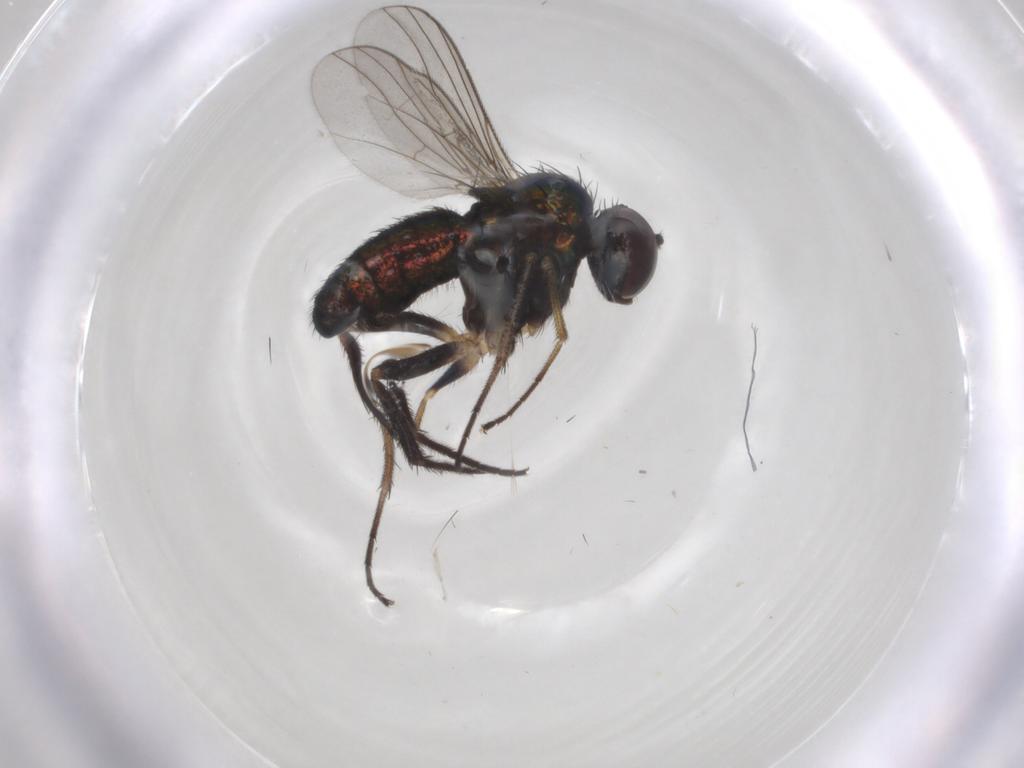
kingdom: Animalia
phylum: Arthropoda
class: Insecta
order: Diptera
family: Dolichopodidae
